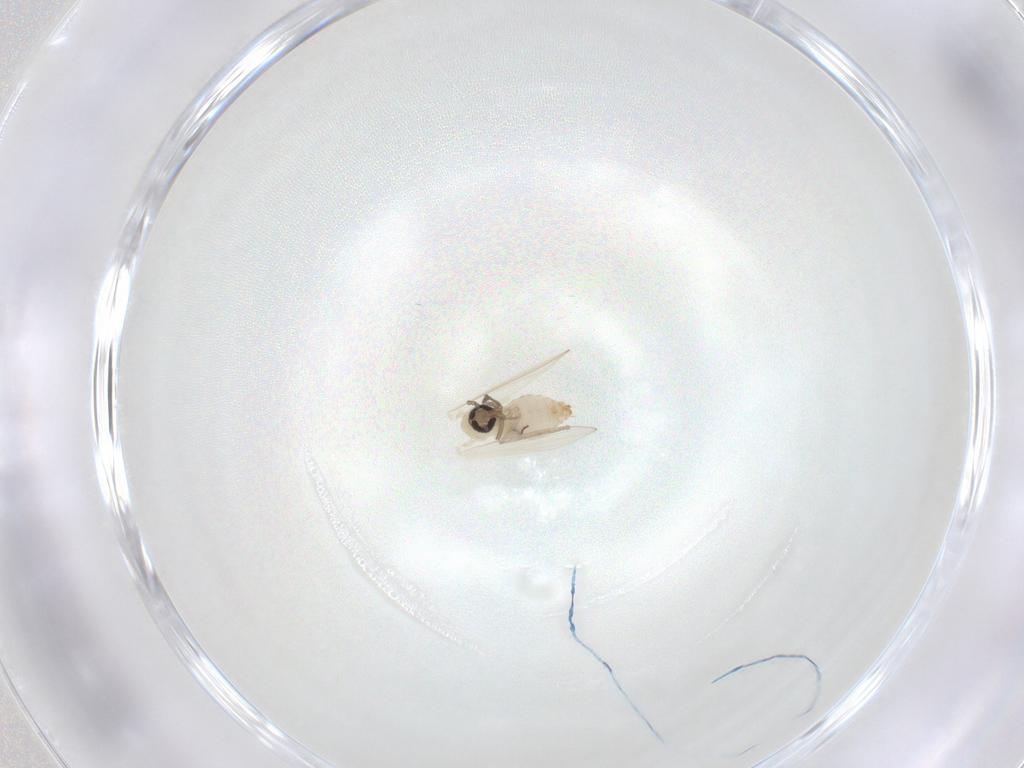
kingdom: Animalia
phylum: Arthropoda
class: Insecta
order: Diptera
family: Psychodidae
